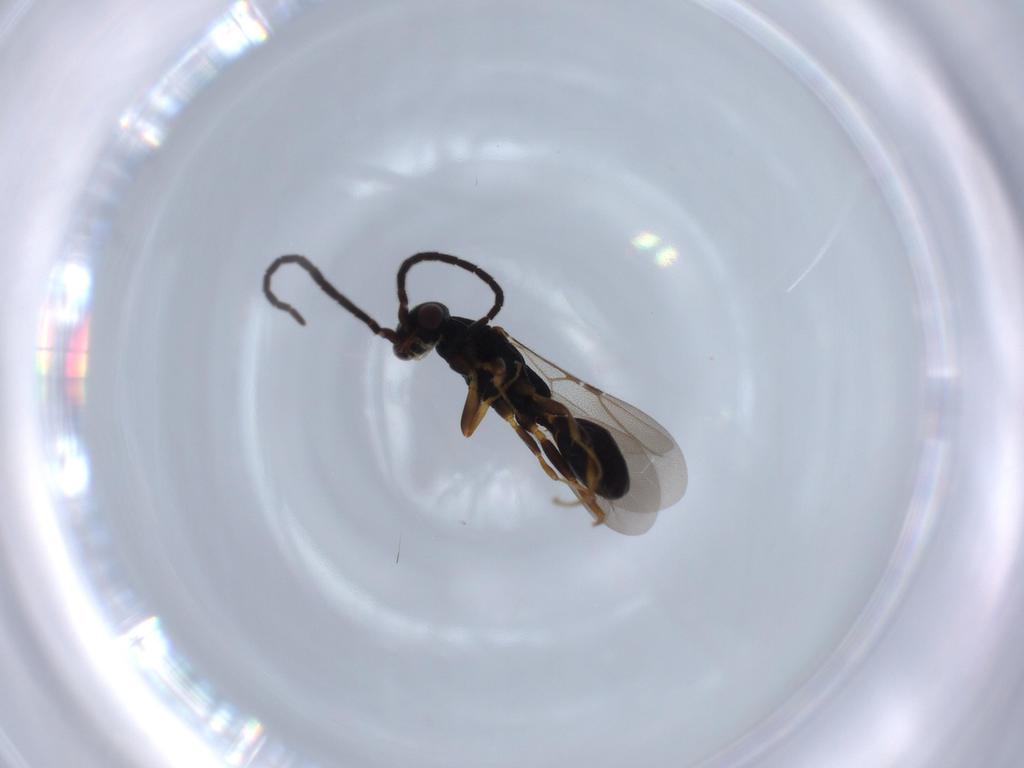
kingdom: Animalia
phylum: Arthropoda
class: Insecta
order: Hymenoptera
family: Bethylidae
